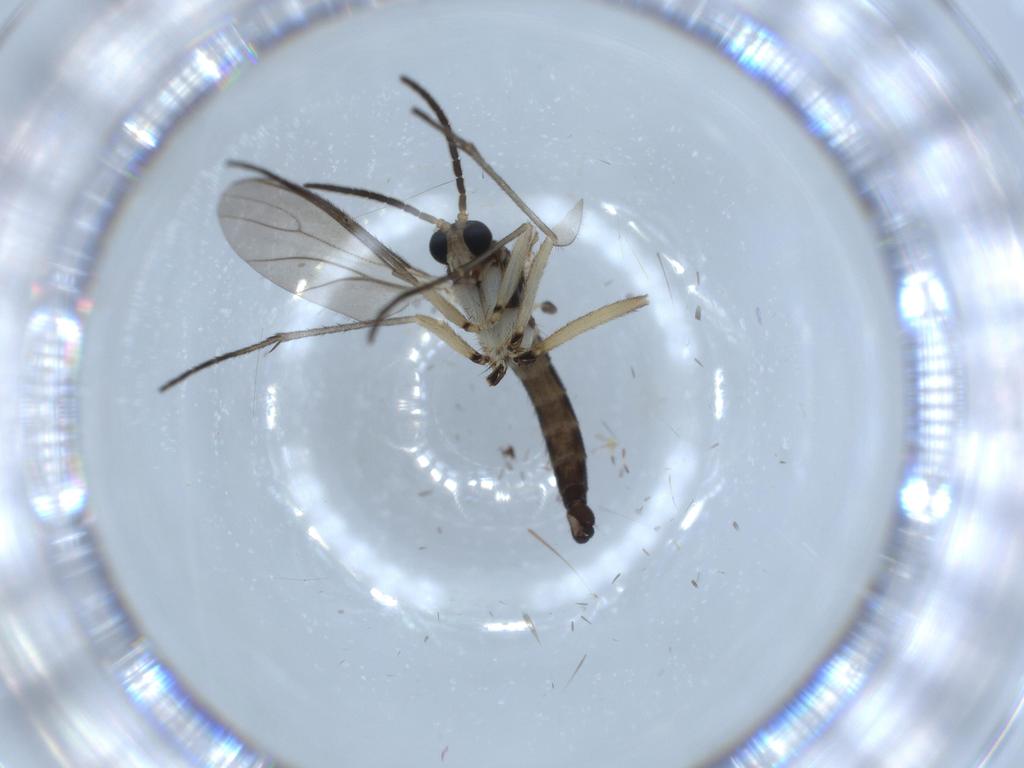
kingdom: Animalia
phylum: Arthropoda
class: Insecta
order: Diptera
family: Sciaridae
